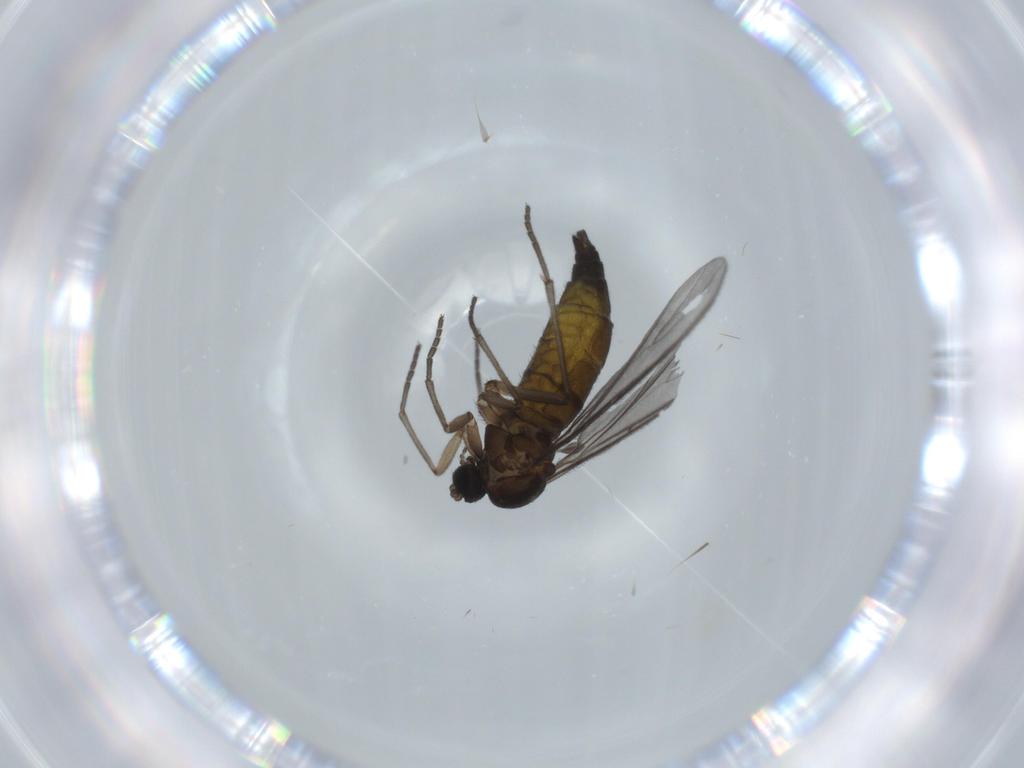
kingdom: Animalia
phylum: Arthropoda
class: Insecta
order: Diptera
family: Sciaridae
